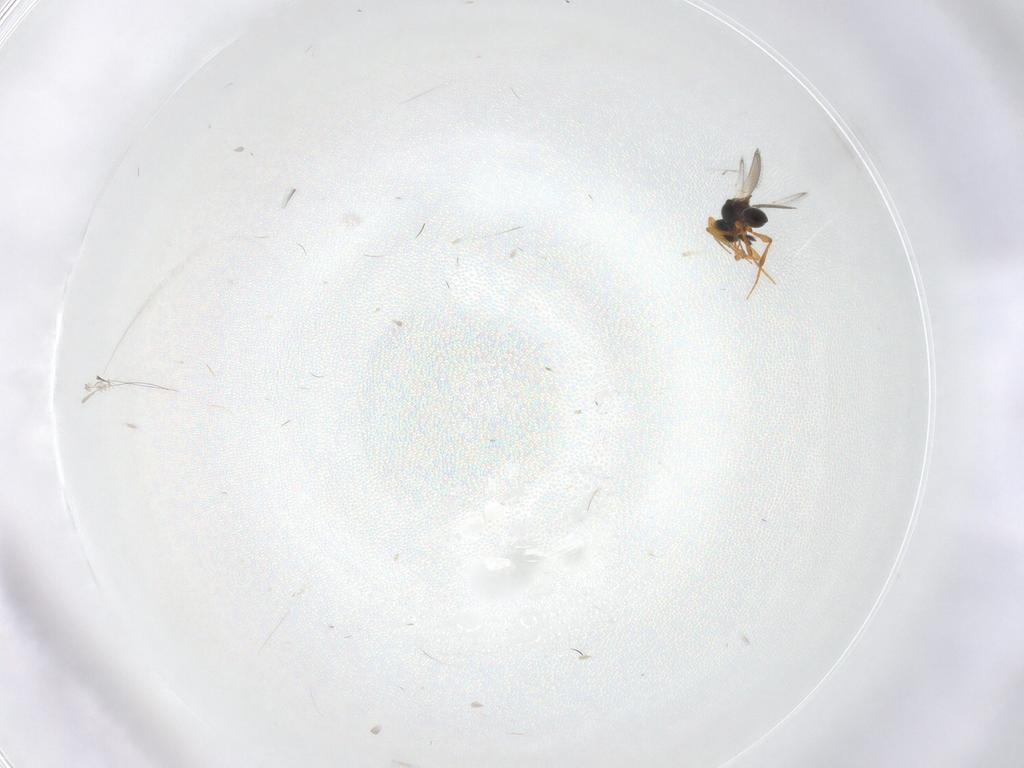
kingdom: Animalia
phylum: Arthropoda
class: Insecta
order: Hymenoptera
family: Platygastridae
